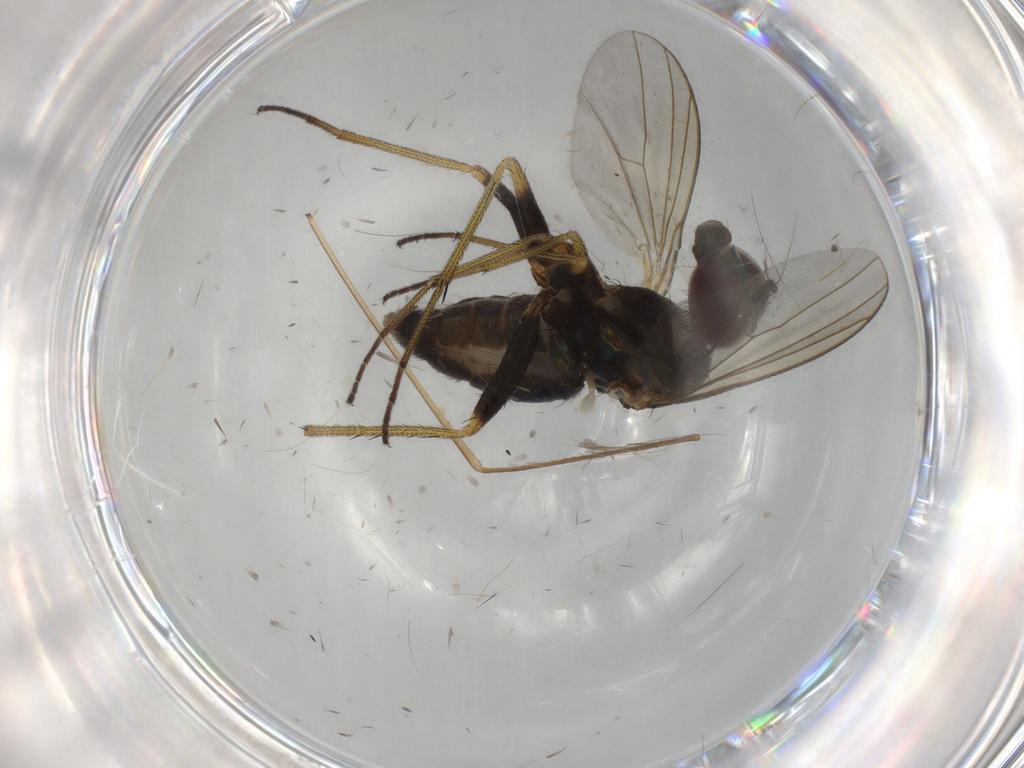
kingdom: Animalia
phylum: Arthropoda
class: Insecta
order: Diptera
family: Dolichopodidae
